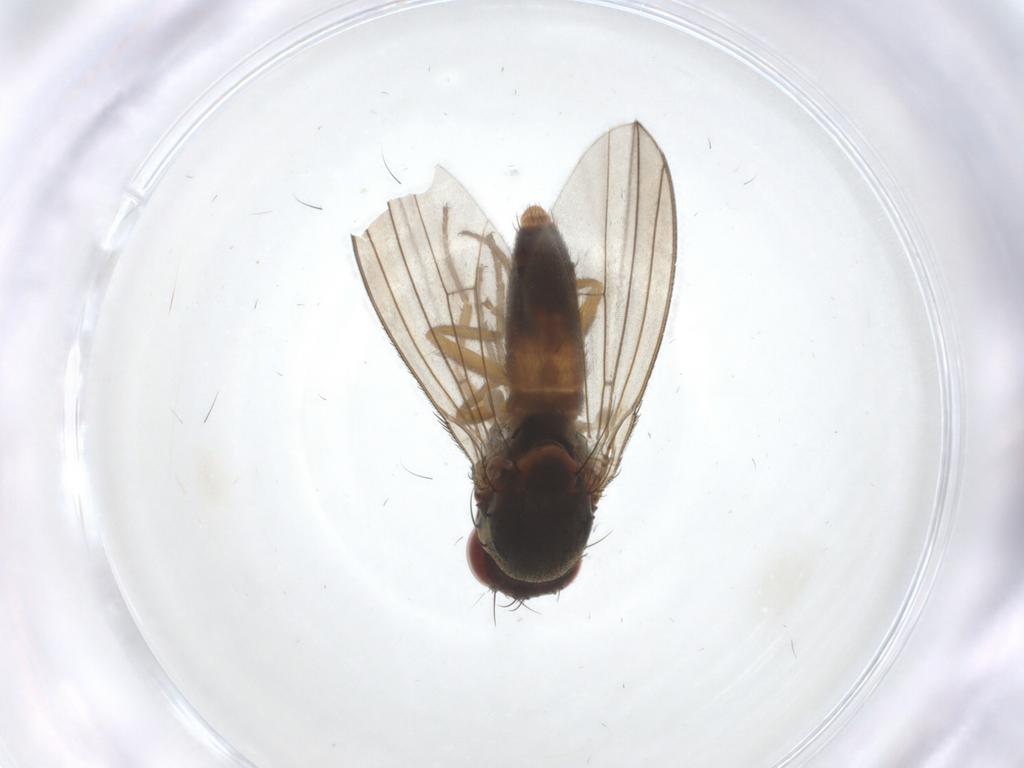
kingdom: Animalia
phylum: Arthropoda
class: Insecta
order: Diptera
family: Diastatidae
